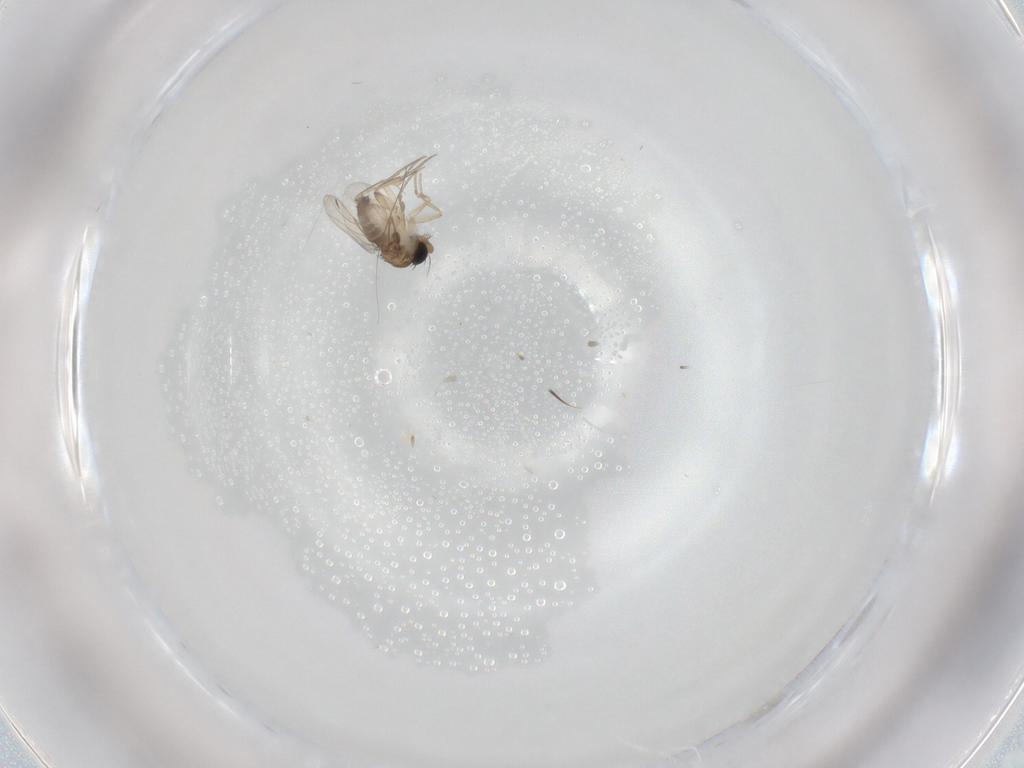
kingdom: Animalia
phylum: Arthropoda
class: Insecta
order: Diptera
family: Phoridae
